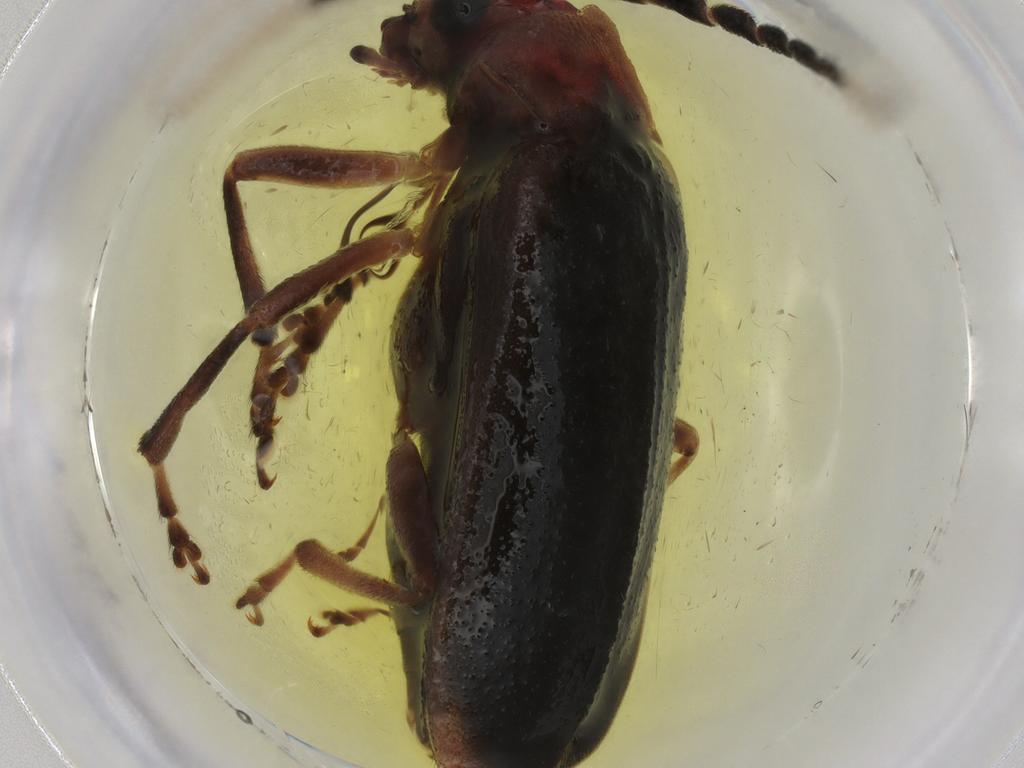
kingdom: Animalia
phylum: Arthropoda
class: Insecta
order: Coleoptera
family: Chrysomelidae
